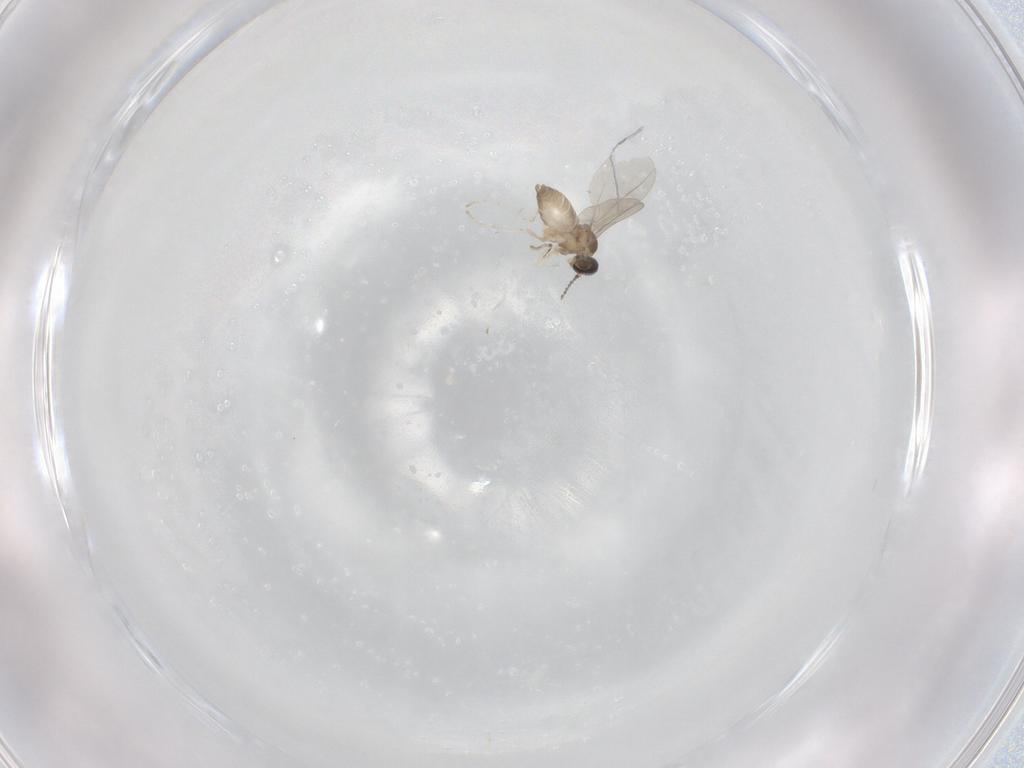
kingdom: Animalia
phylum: Arthropoda
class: Insecta
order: Diptera
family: Cecidomyiidae
